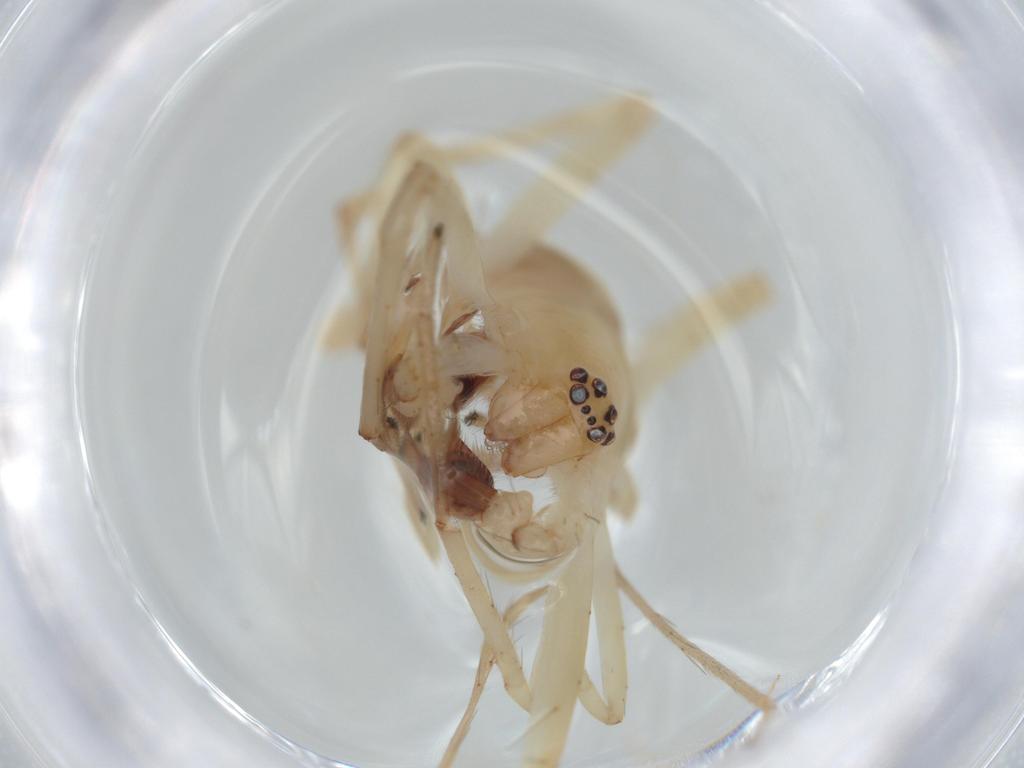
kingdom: Animalia
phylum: Arthropoda
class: Arachnida
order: Araneae
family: Anyphaenidae
